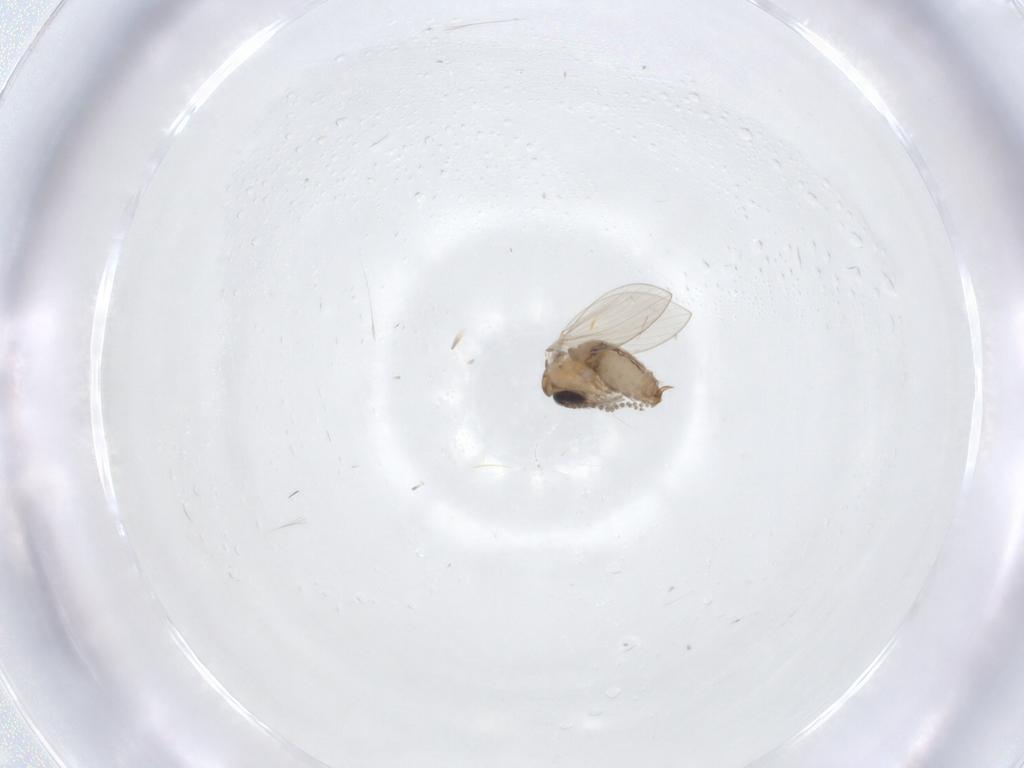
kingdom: Animalia
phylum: Arthropoda
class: Insecta
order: Diptera
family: Psychodidae
